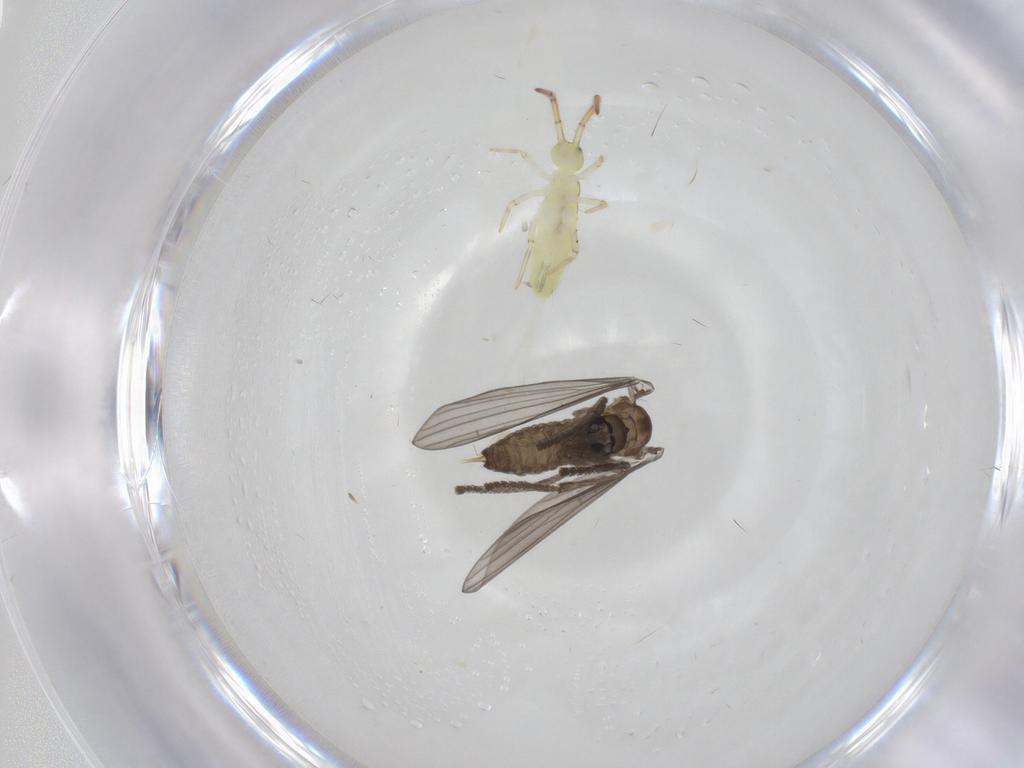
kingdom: Animalia
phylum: Arthropoda
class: Insecta
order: Diptera
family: Psychodidae
